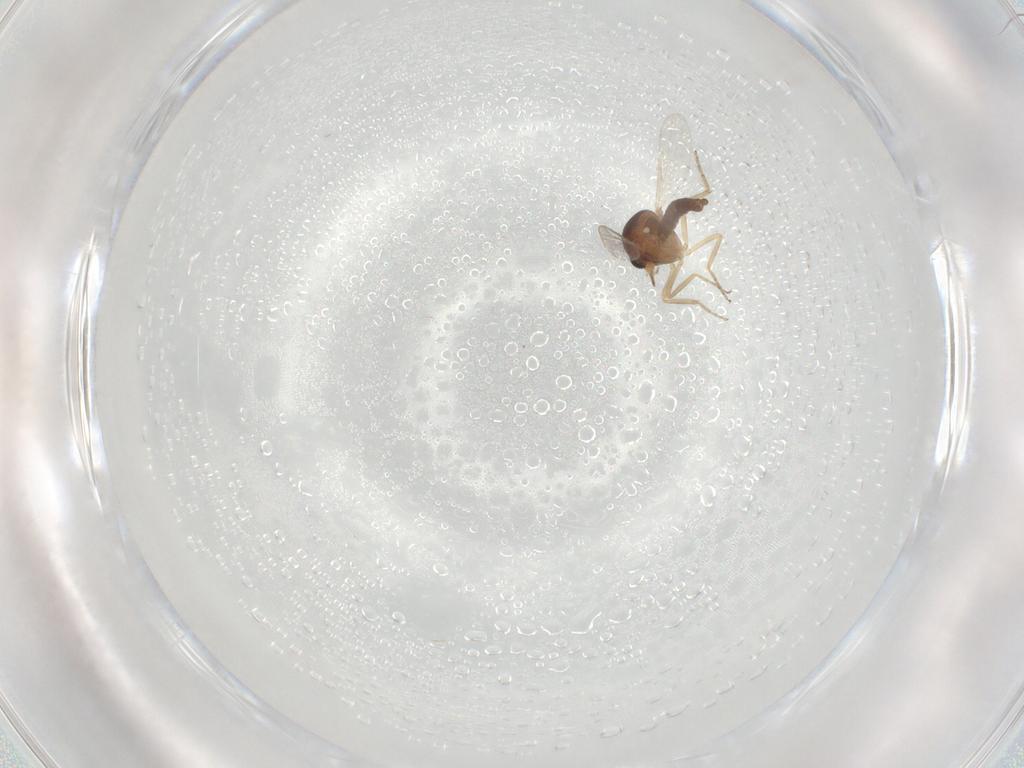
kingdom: Animalia
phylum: Arthropoda
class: Insecta
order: Diptera
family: Ceratopogonidae
